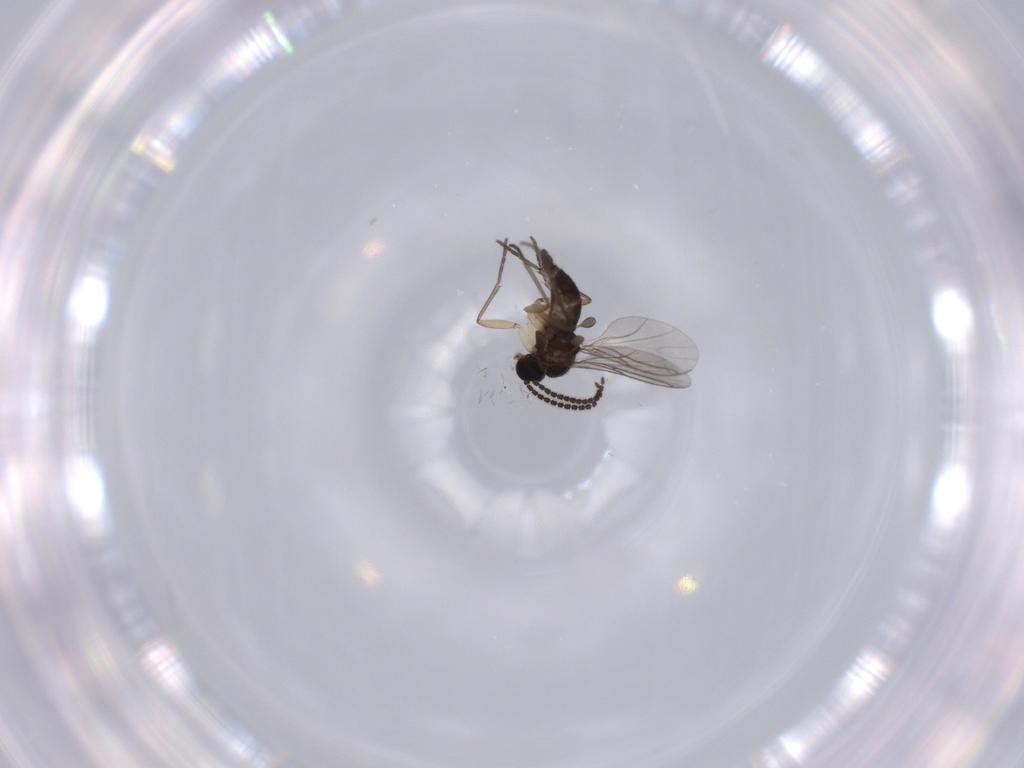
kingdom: Animalia
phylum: Arthropoda
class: Insecta
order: Diptera
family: Sciaridae
